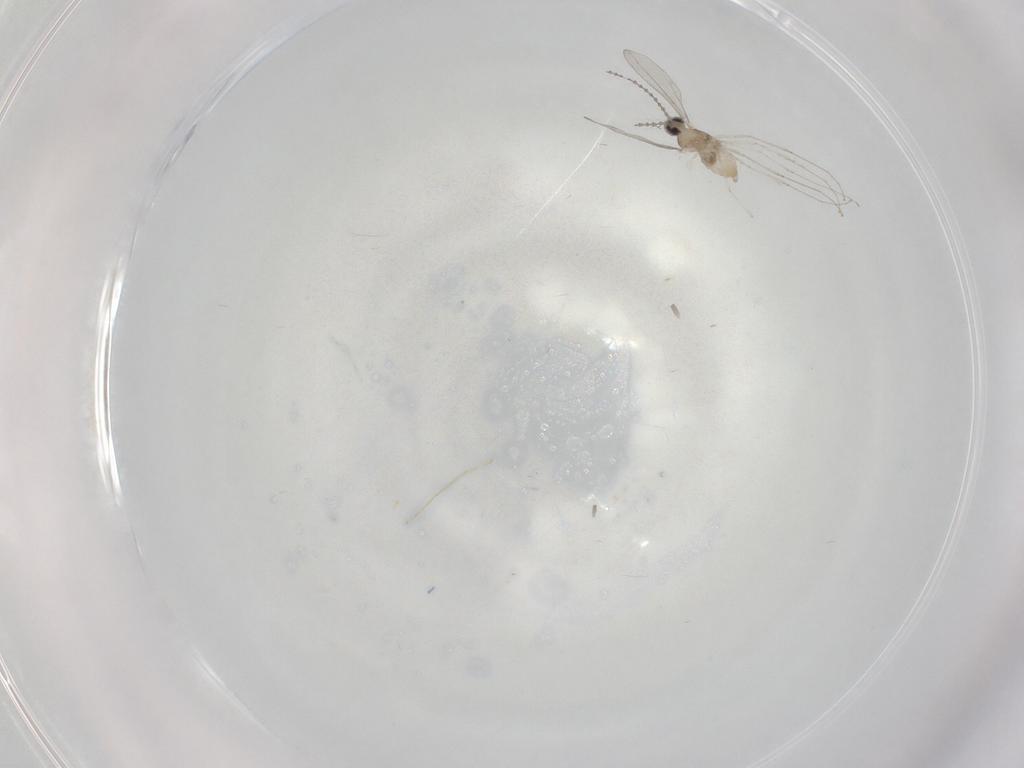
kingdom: Animalia
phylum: Arthropoda
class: Insecta
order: Diptera
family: Cecidomyiidae
